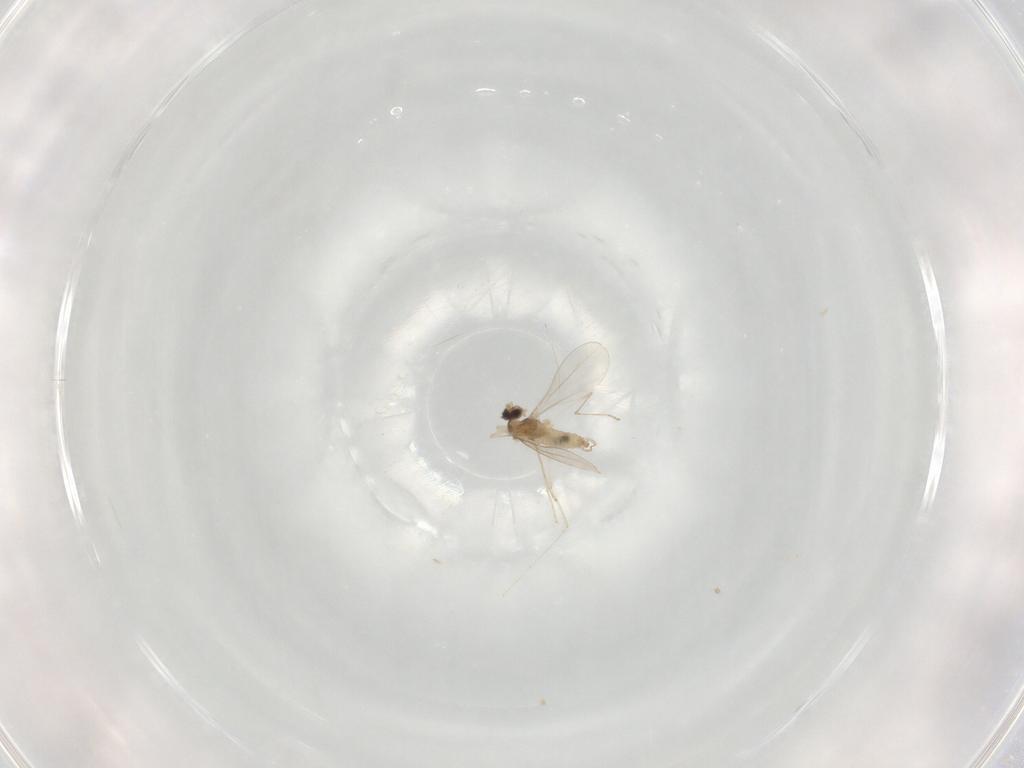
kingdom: Animalia
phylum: Arthropoda
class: Insecta
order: Diptera
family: Cecidomyiidae
